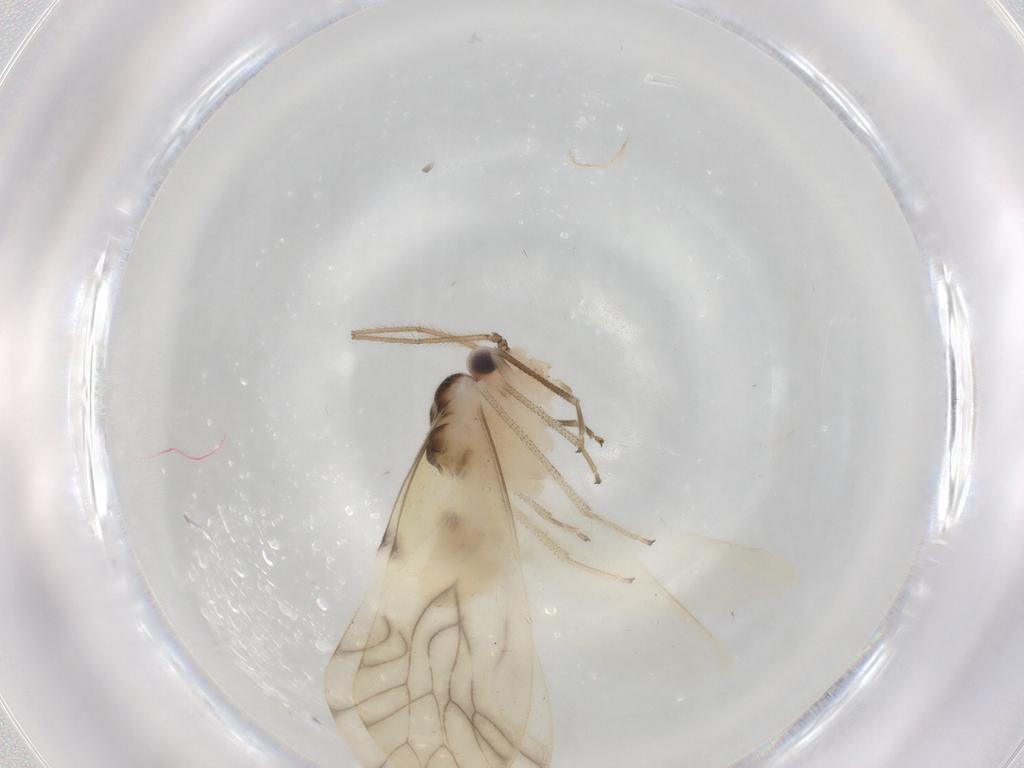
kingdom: Animalia
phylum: Arthropoda
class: Insecta
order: Psocodea
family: Caeciliusidae
